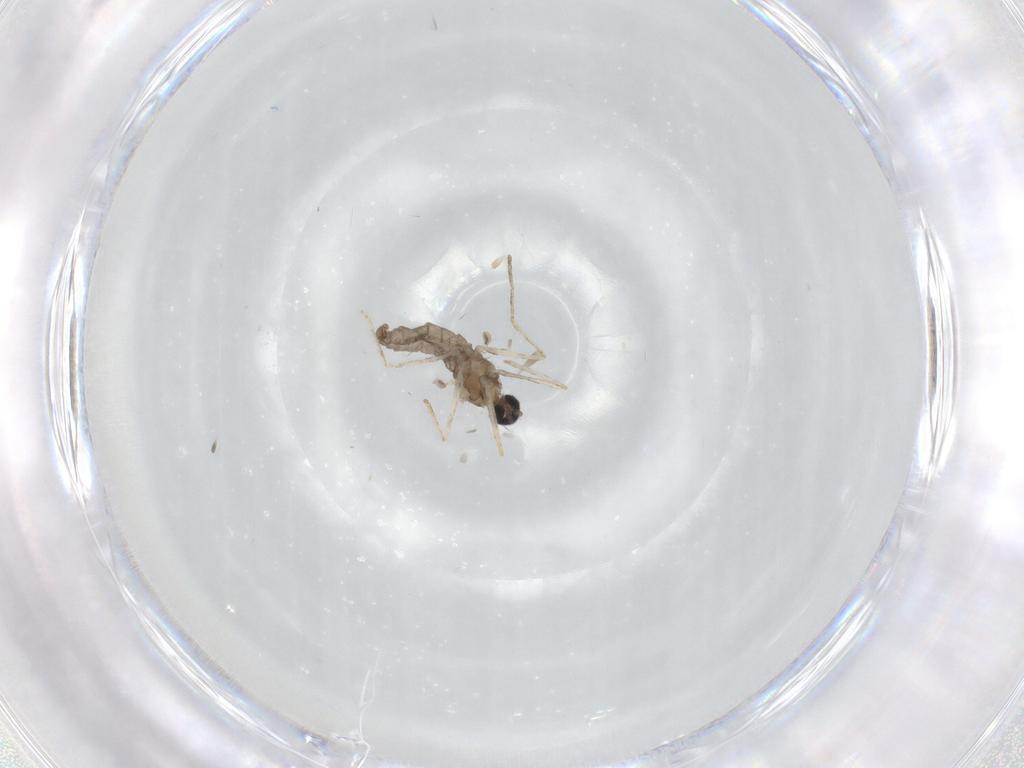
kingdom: Animalia
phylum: Arthropoda
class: Insecta
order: Diptera
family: Cecidomyiidae
